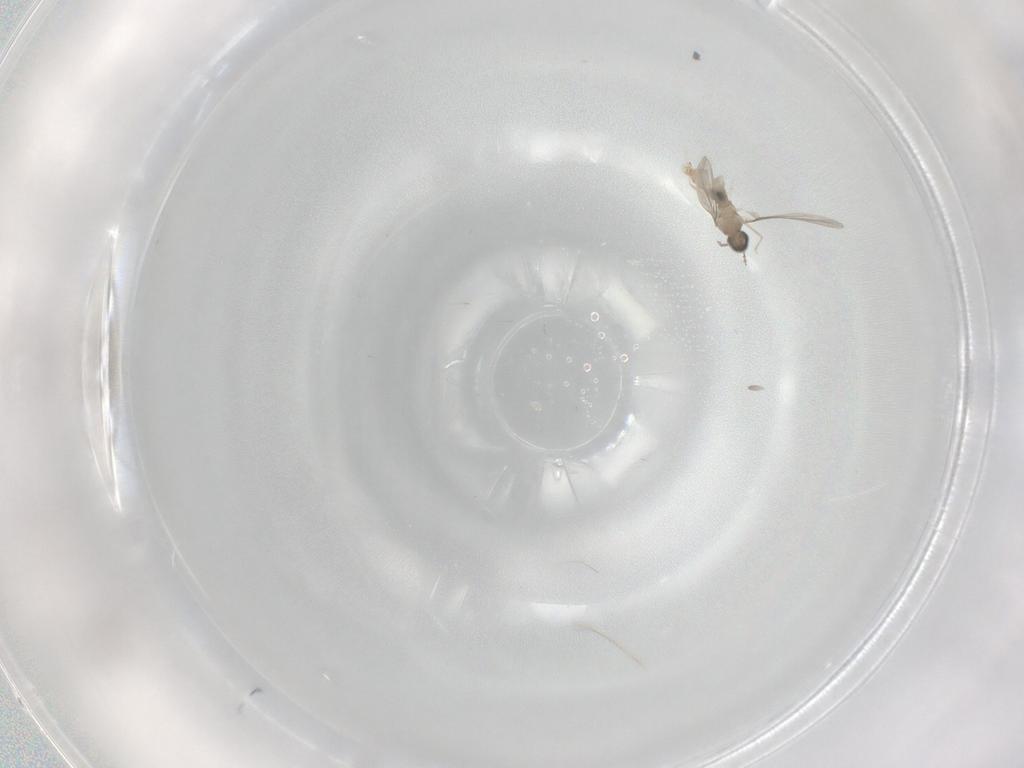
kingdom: Animalia
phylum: Arthropoda
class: Insecta
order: Diptera
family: Cecidomyiidae
